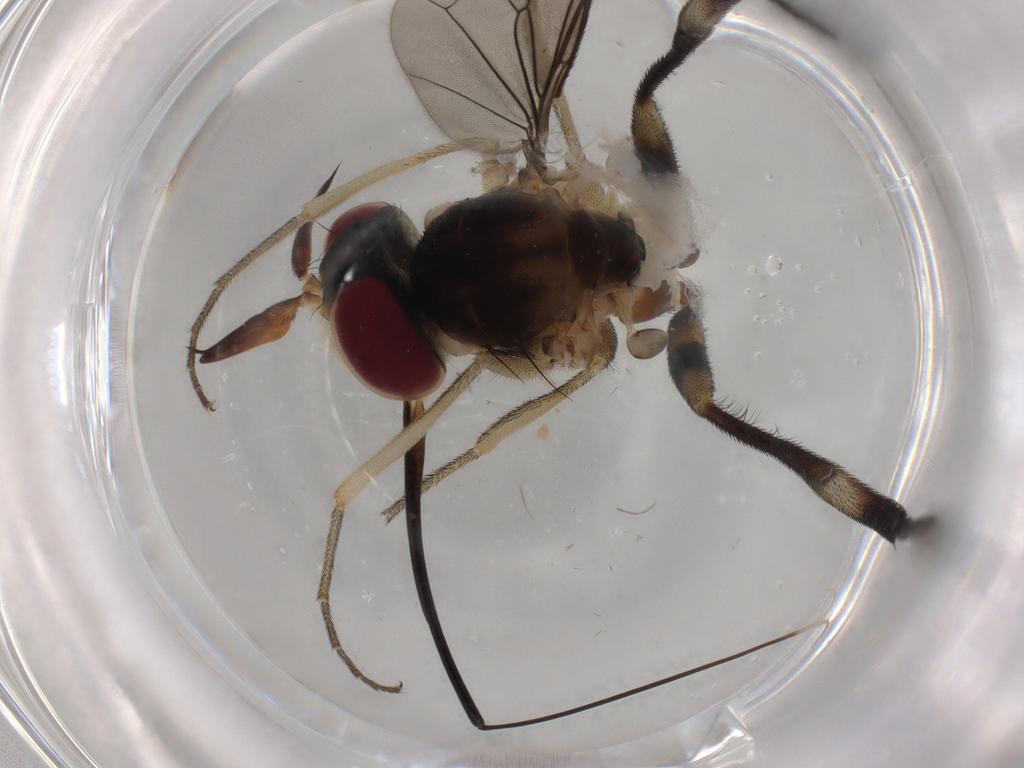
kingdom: Animalia
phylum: Arthropoda
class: Insecta
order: Diptera
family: Conopidae
